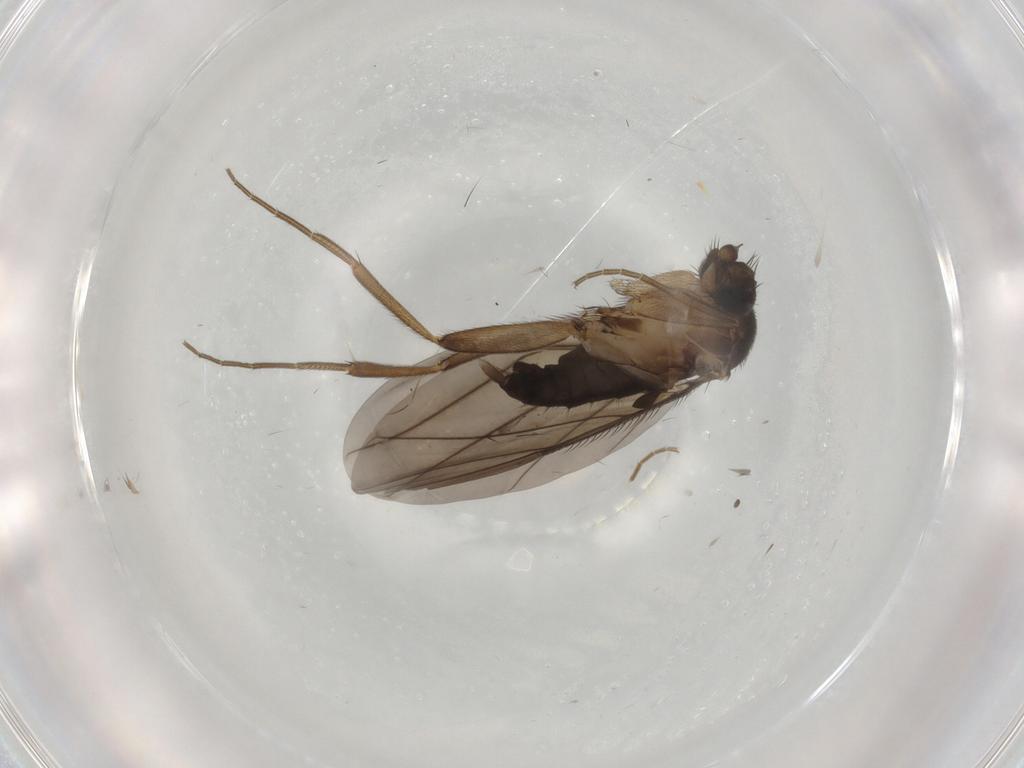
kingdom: Animalia
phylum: Arthropoda
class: Insecta
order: Diptera
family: Phoridae
